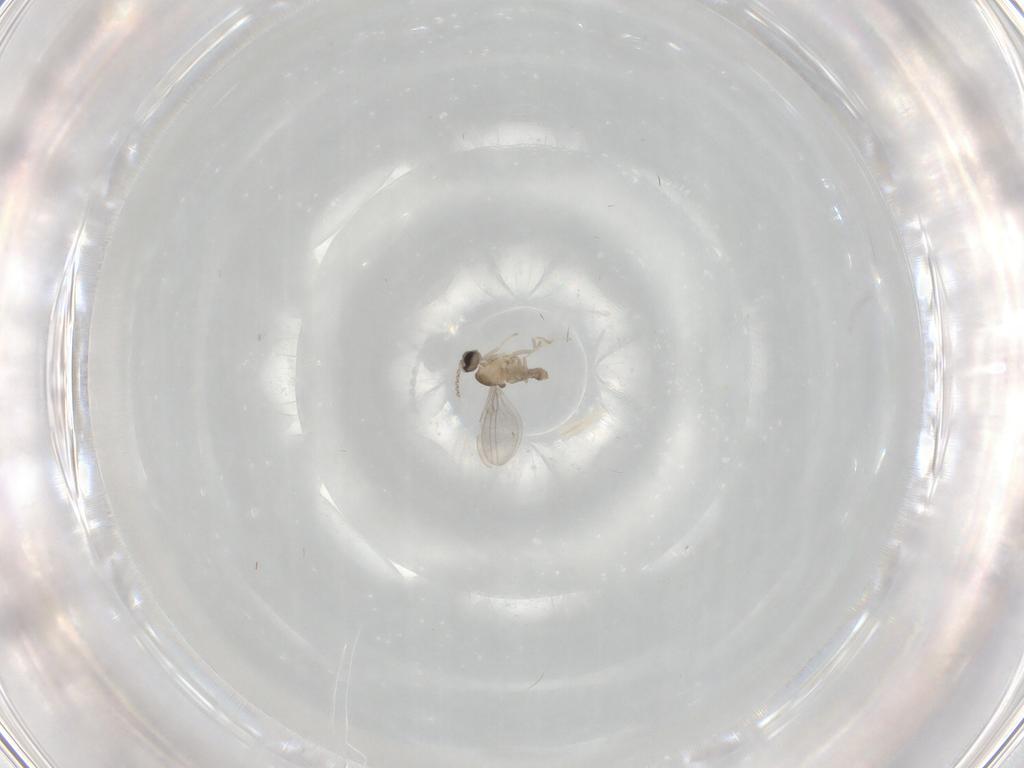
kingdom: Animalia
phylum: Arthropoda
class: Insecta
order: Diptera
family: Cecidomyiidae
